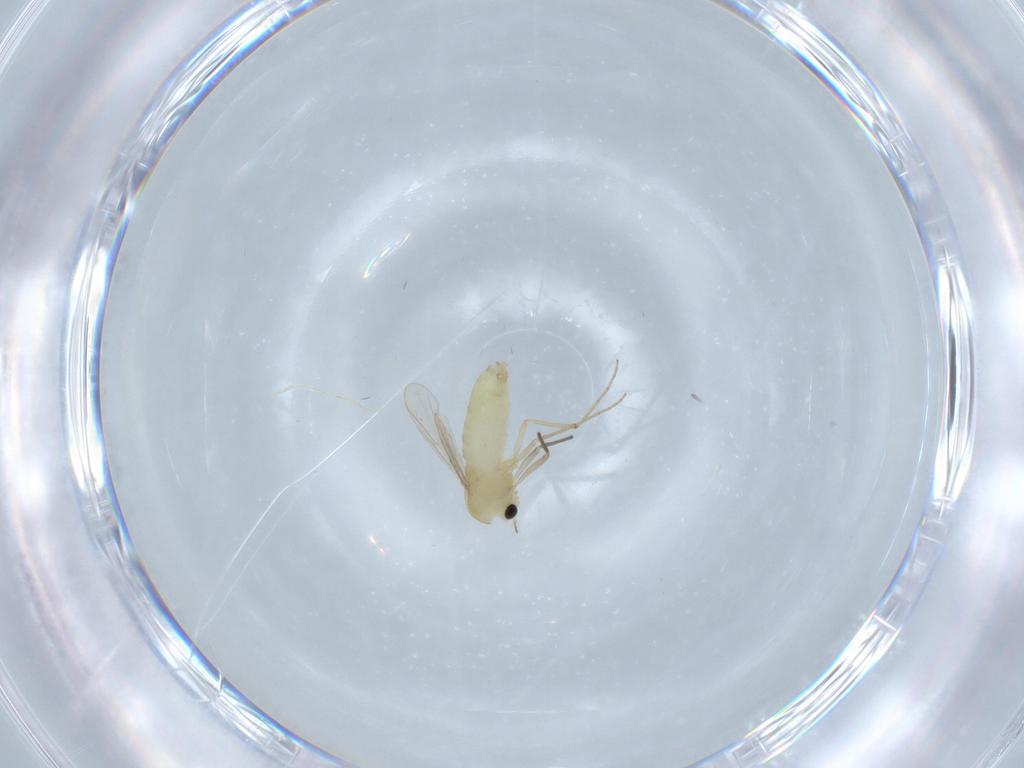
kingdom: Animalia
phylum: Arthropoda
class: Insecta
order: Diptera
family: Chironomidae
